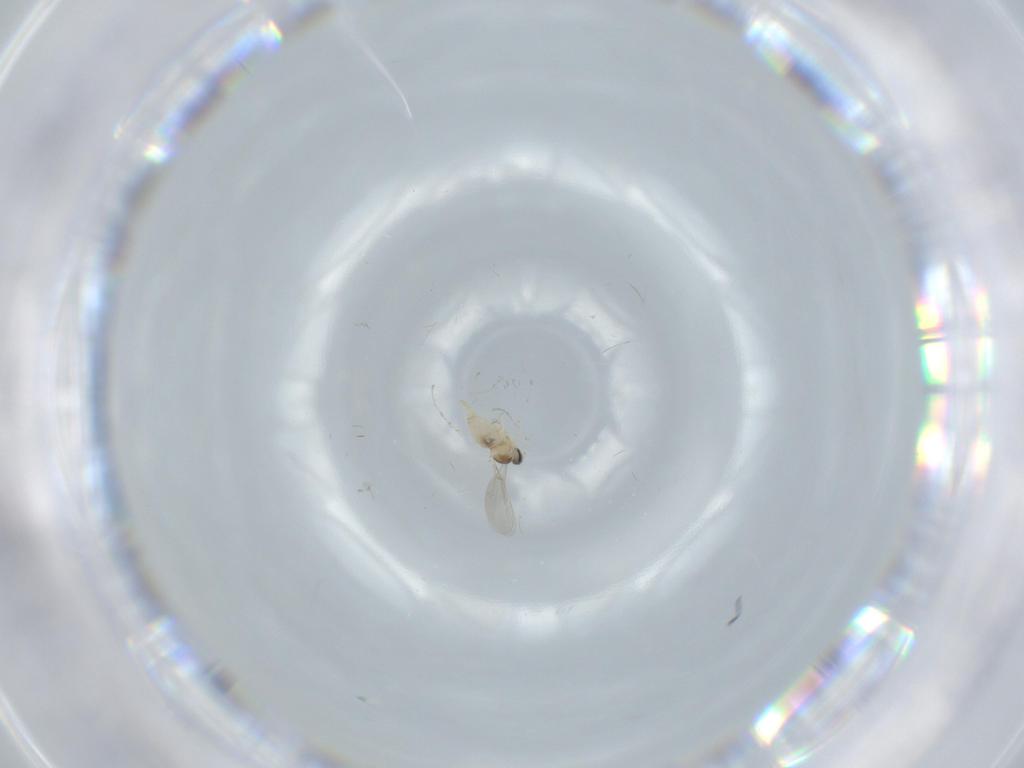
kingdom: Animalia
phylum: Arthropoda
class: Insecta
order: Diptera
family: Cecidomyiidae
